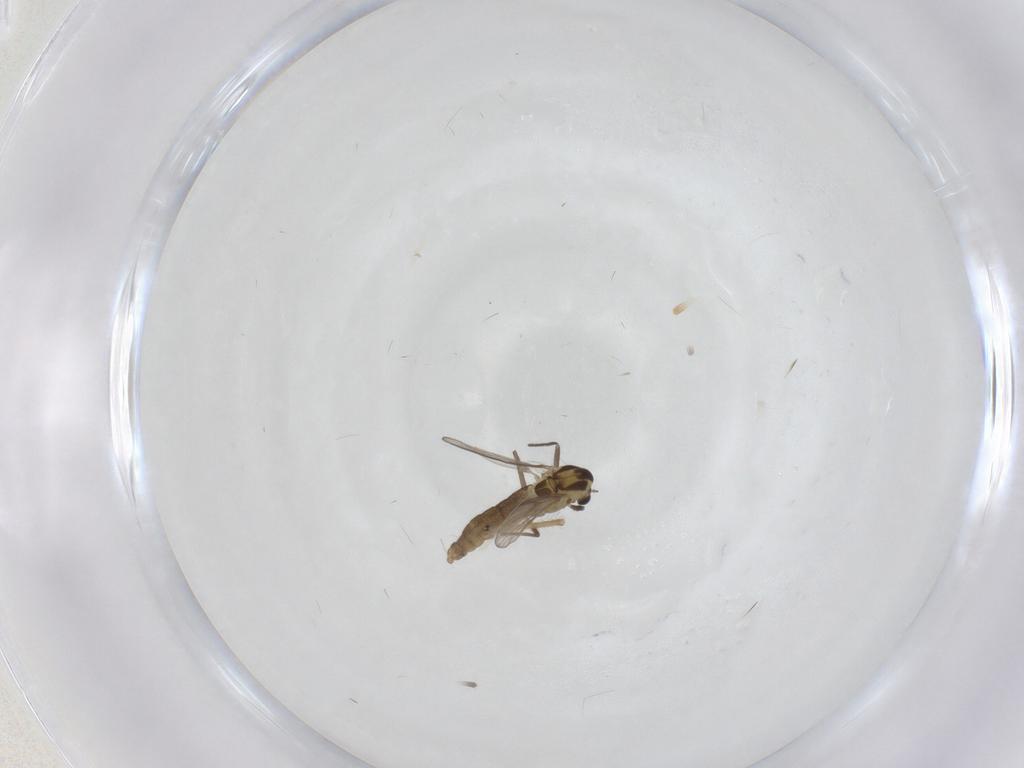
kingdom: Animalia
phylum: Arthropoda
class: Insecta
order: Diptera
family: Chironomidae
